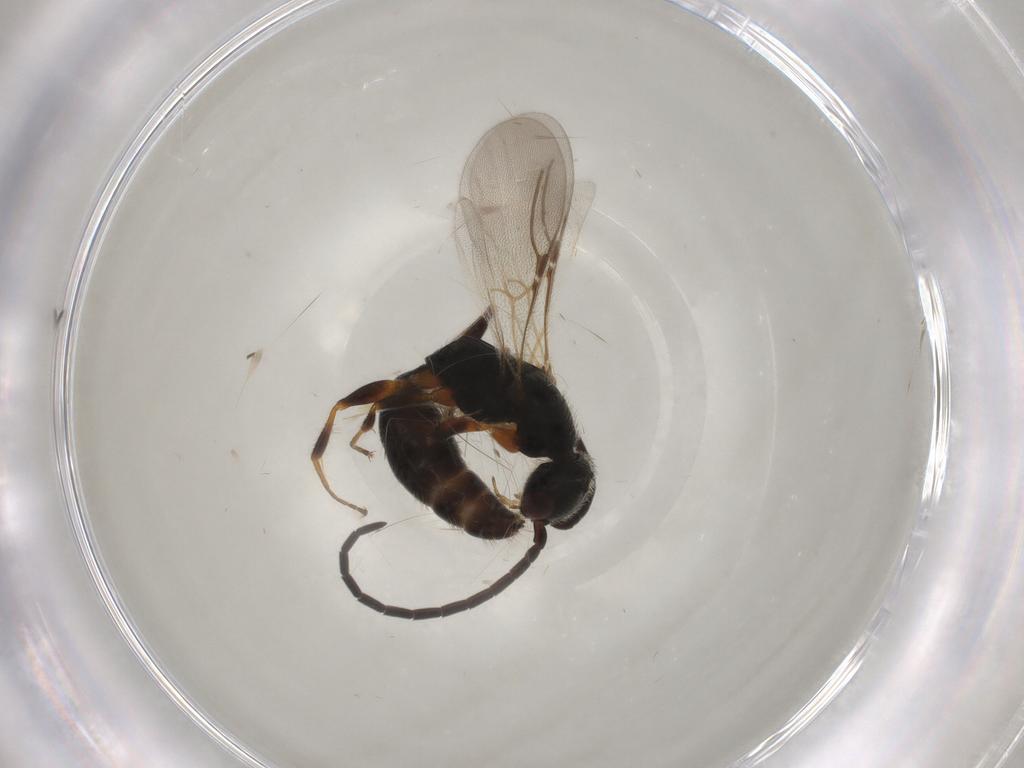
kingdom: Animalia
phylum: Arthropoda
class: Insecta
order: Hymenoptera
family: Bethylidae
